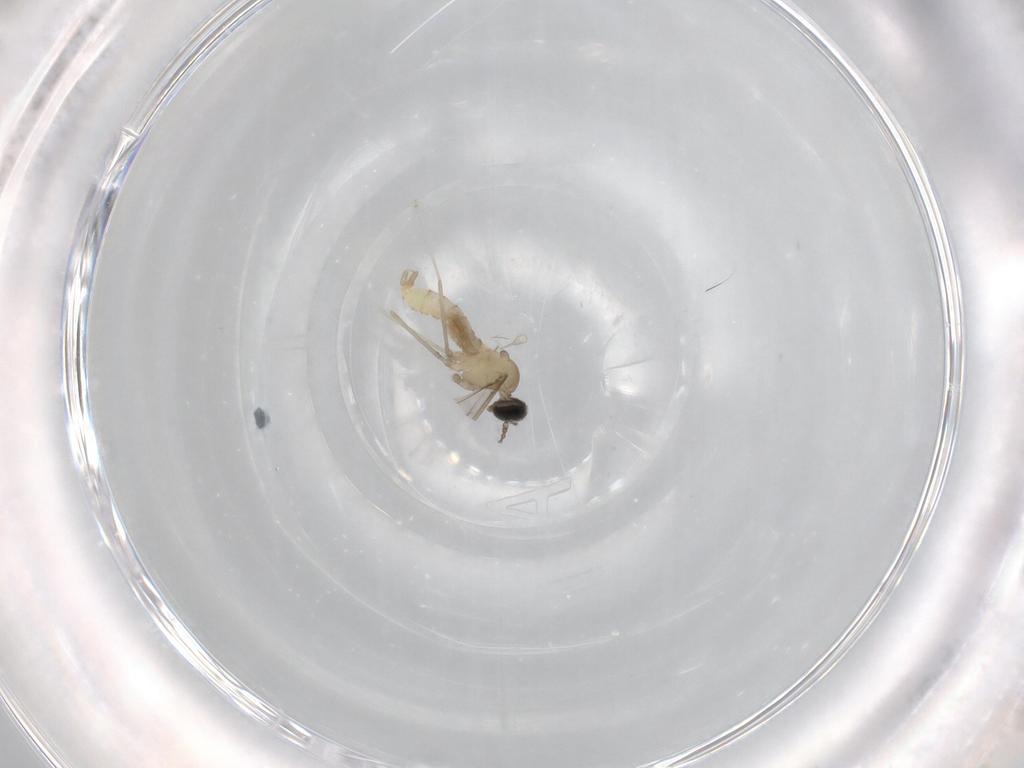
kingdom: Animalia
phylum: Arthropoda
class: Insecta
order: Diptera
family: Cecidomyiidae
